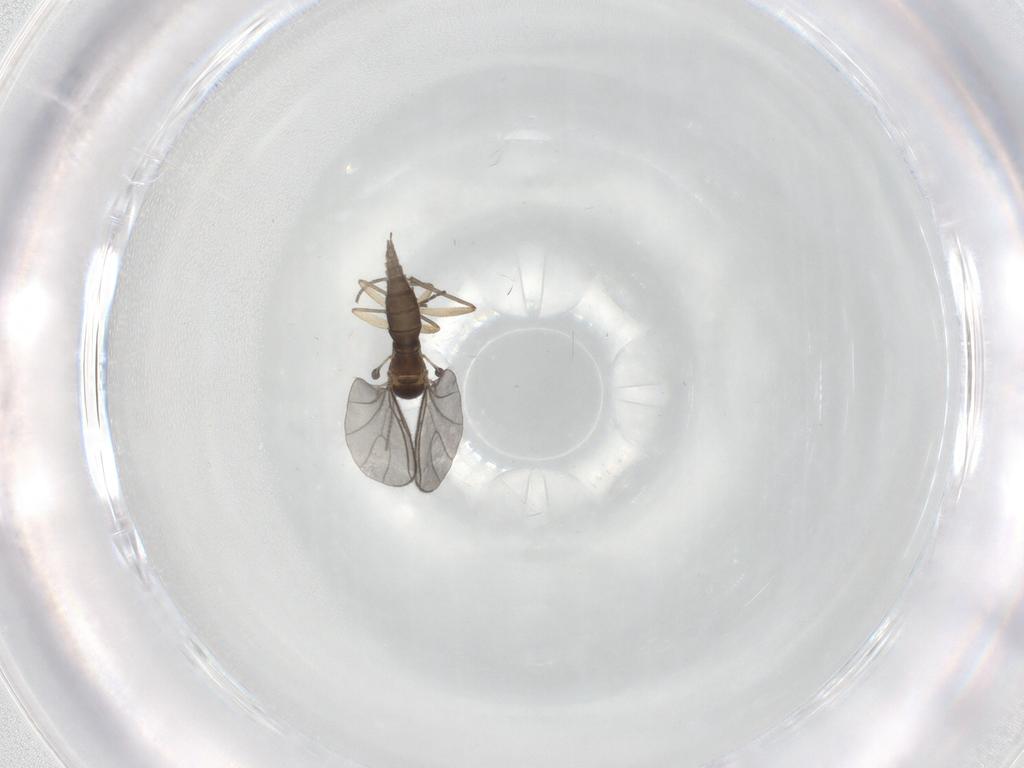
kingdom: Animalia
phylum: Arthropoda
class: Insecta
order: Diptera
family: Sciaridae
